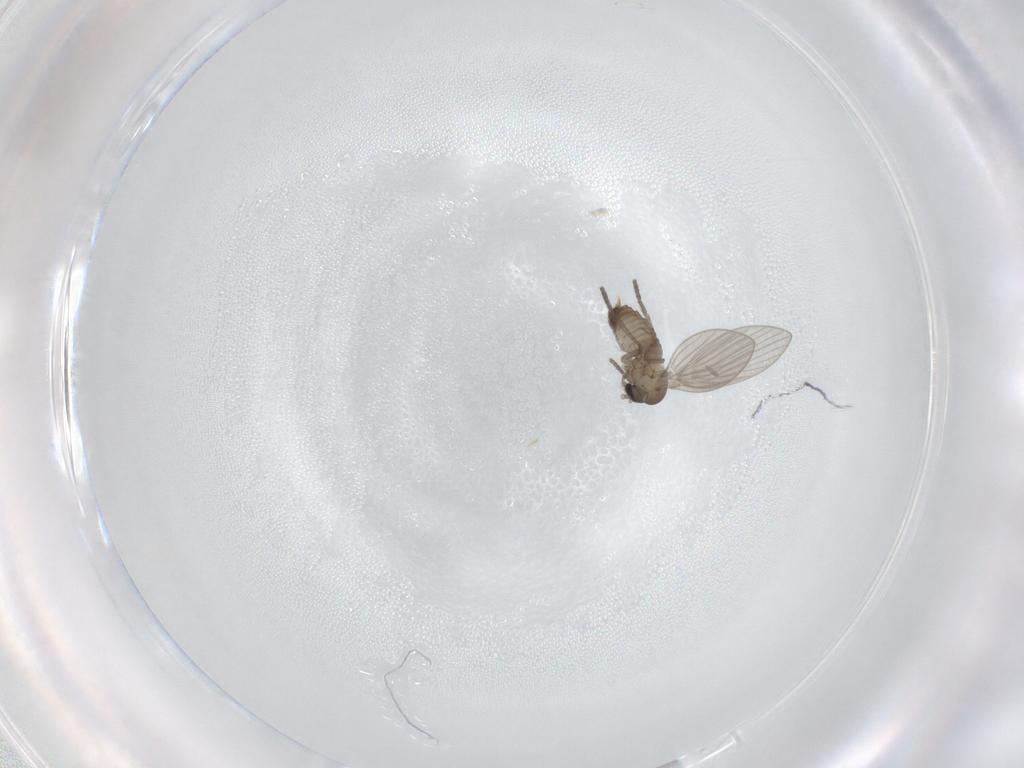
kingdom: Animalia
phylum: Arthropoda
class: Insecta
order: Diptera
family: Psychodidae
